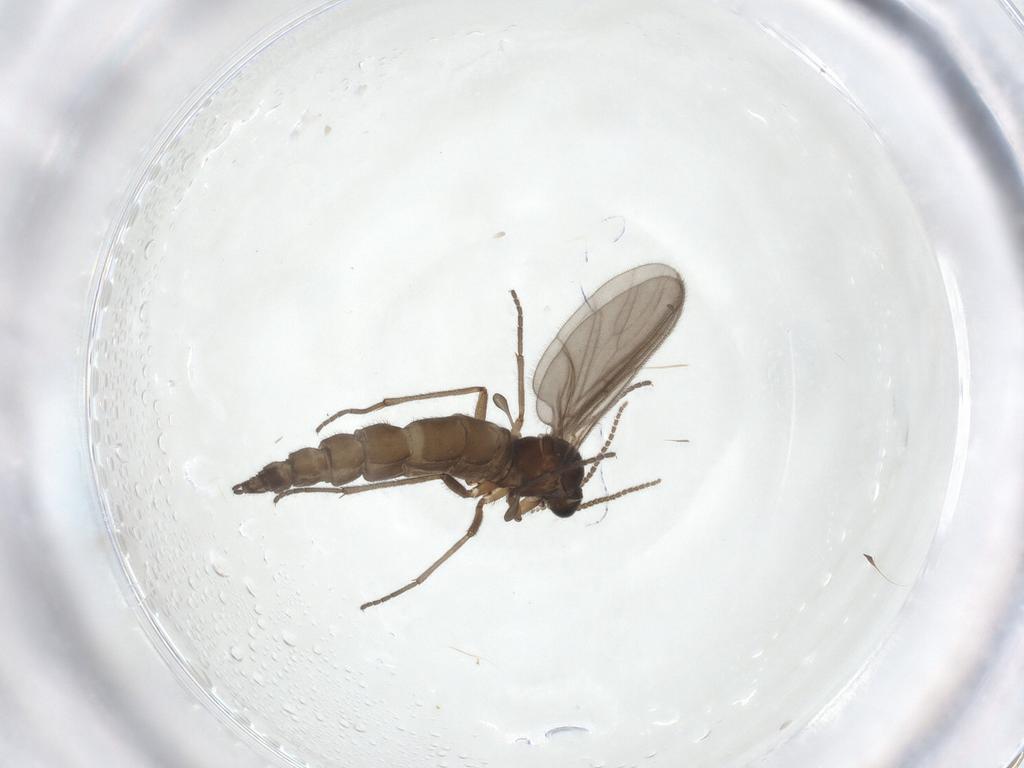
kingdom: Animalia
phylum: Arthropoda
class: Insecta
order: Diptera
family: Sciaridae
